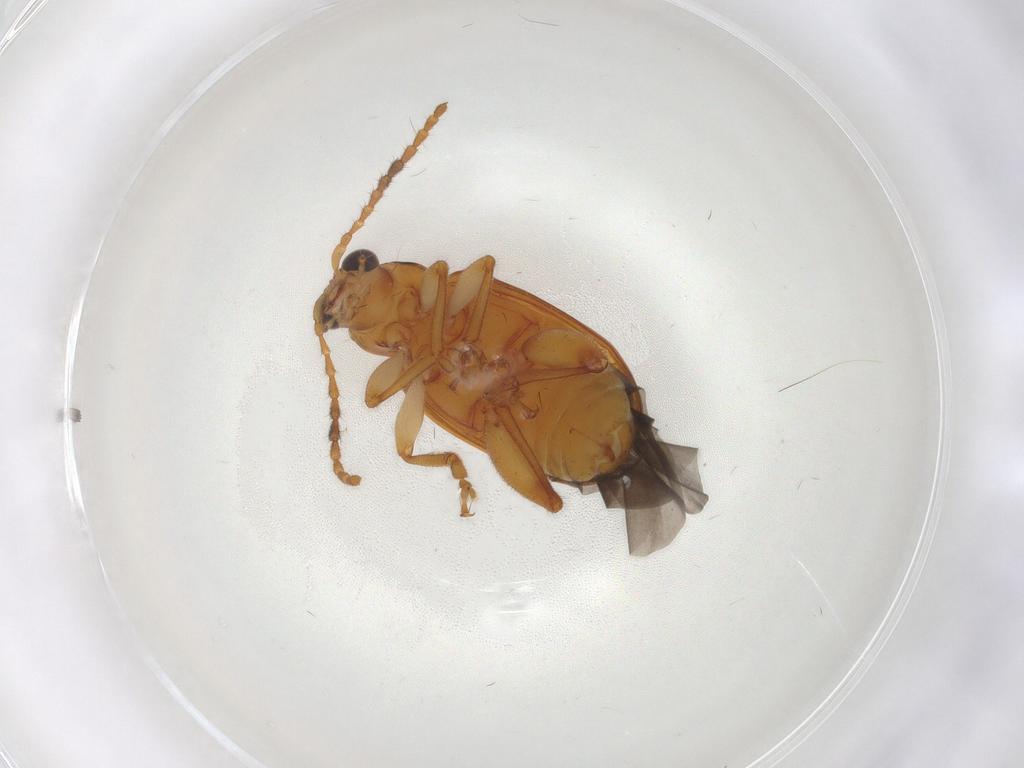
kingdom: Animalia
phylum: Arthropoda
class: Insecta
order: Coleoptera
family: Chrysomelidae
